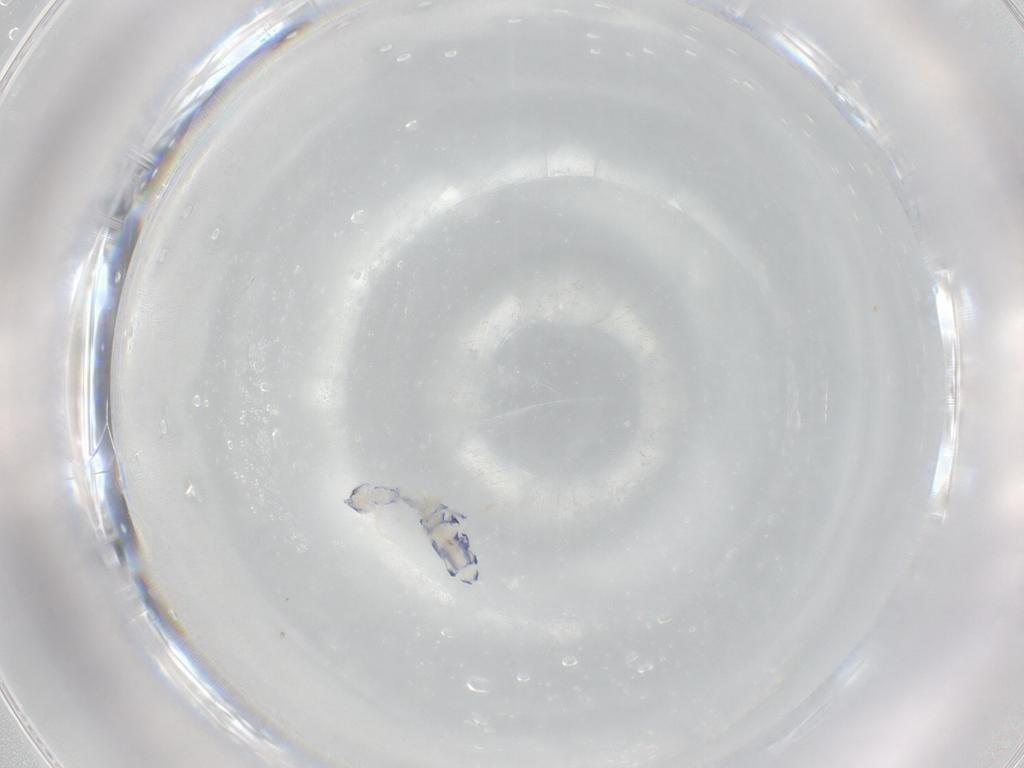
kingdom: Animalia
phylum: Arthropoda
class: Collembola
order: Entomobryomorpha
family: Entomobryidae
